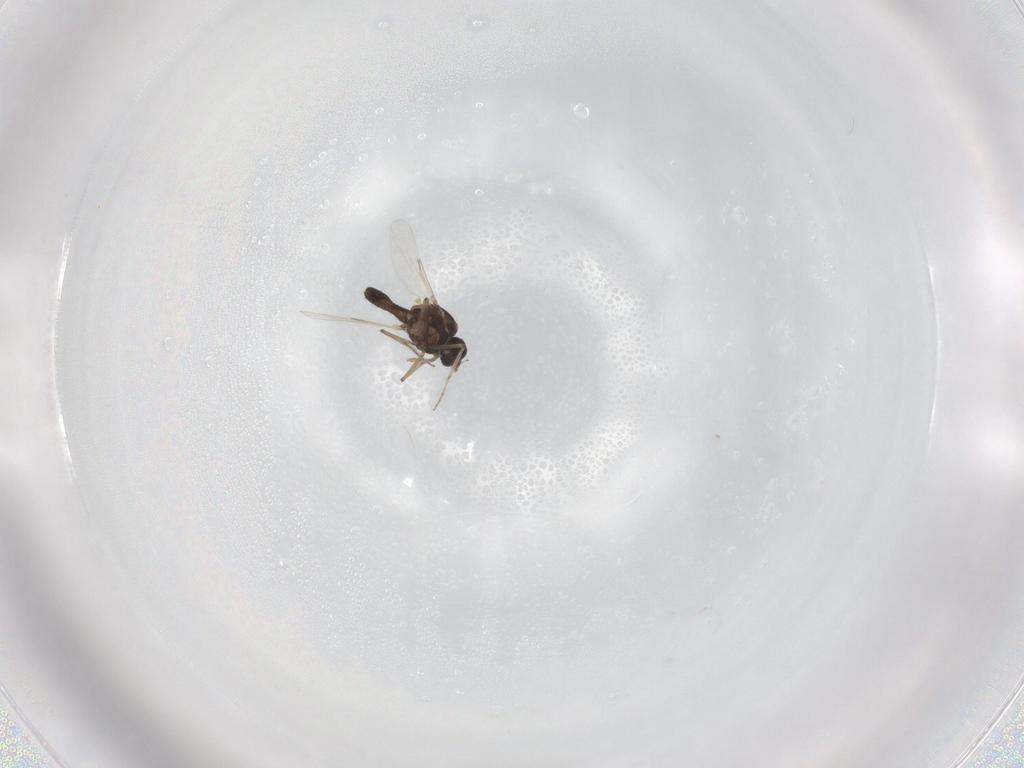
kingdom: Animalia
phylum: Arthropoda
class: Insecta
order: Diptera
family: Ceratopogonidae
